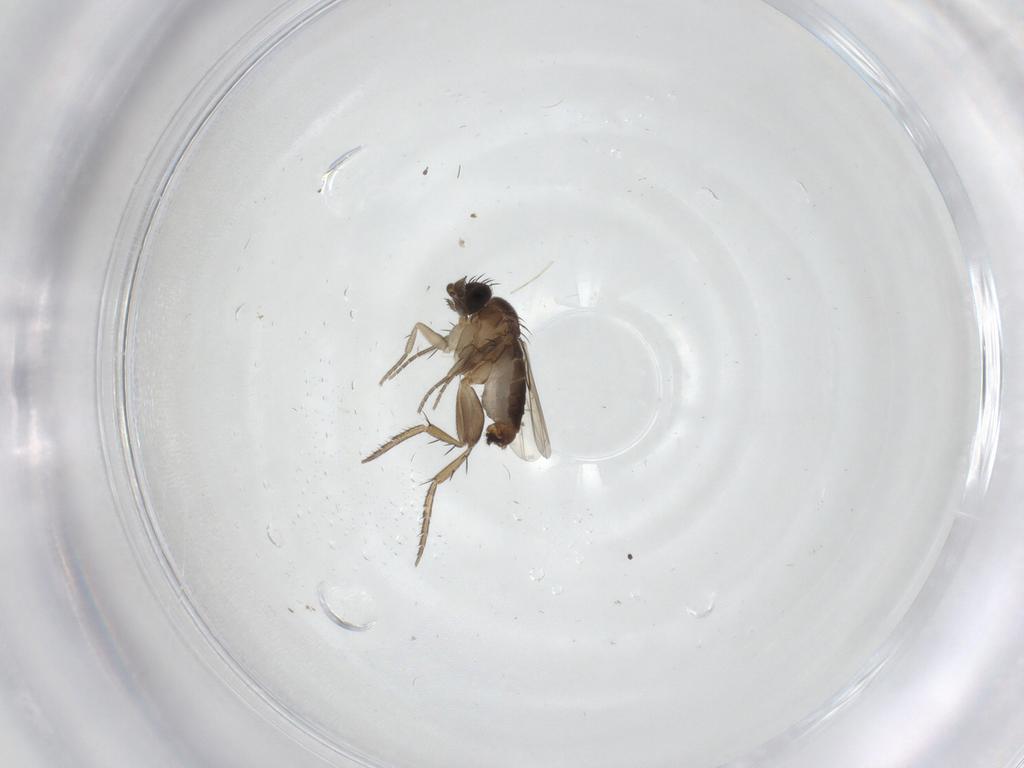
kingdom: Animalia
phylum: Arthropoda
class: Insecta
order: Diptera
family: Phoridae
